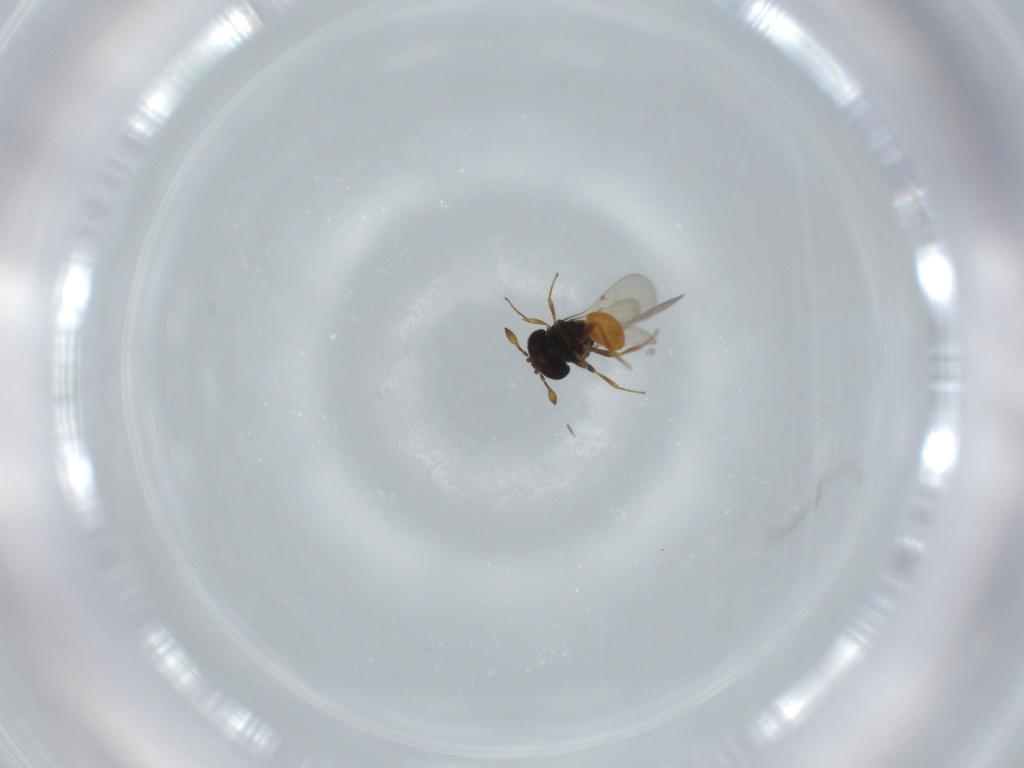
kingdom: Animalia
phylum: Arthropoda
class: Insecta
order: Hymenoptera
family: Scelionidae
